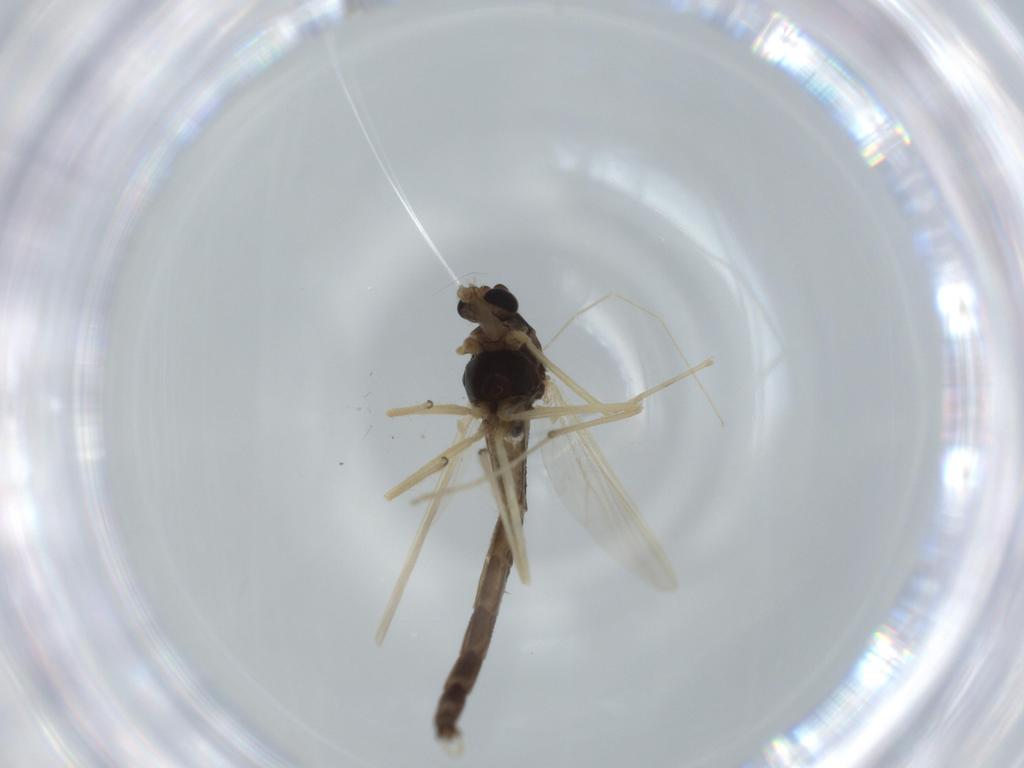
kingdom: Animalia
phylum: Arthropoda
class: Insecta
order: Diptera
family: Chironomidae
